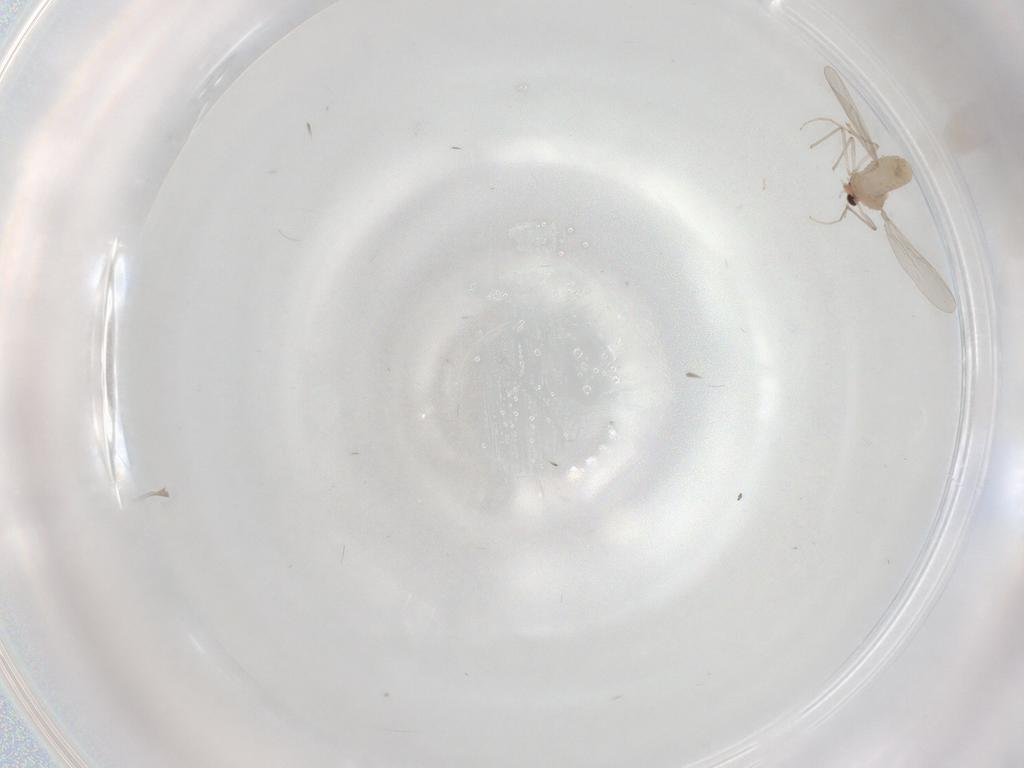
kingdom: Animalia
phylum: Arthropoda
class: Insecta
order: Diptera
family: Chironomidae
